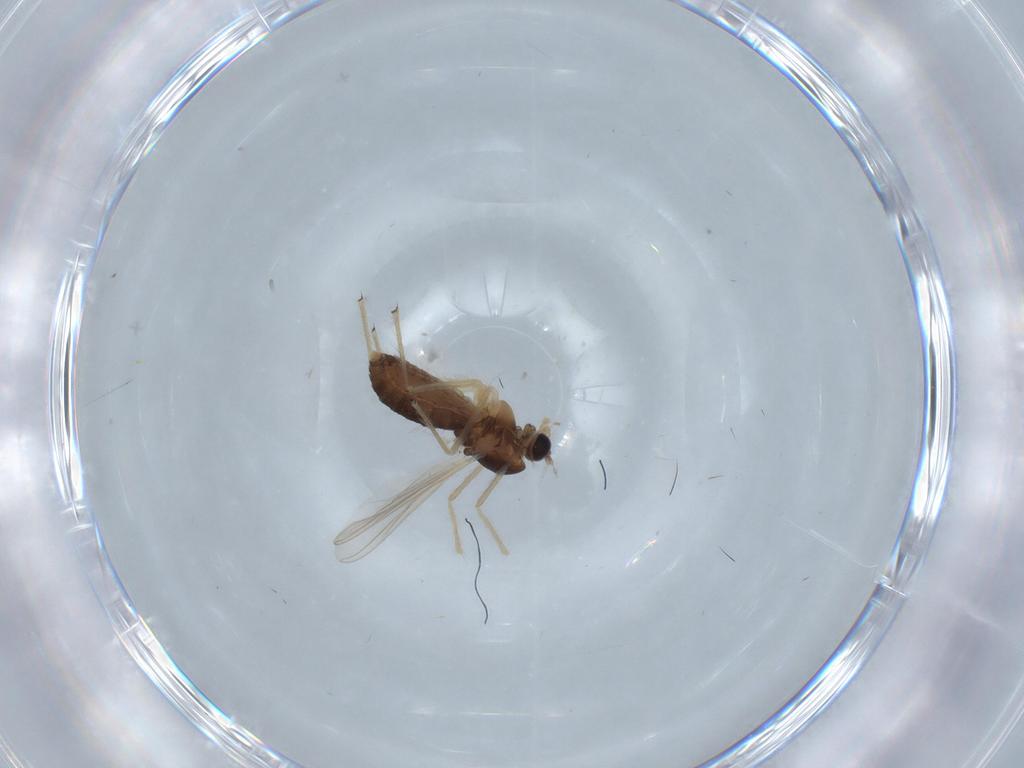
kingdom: Animalia
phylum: Arthropoda
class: Insecta
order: Diptera
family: Chironomidae
